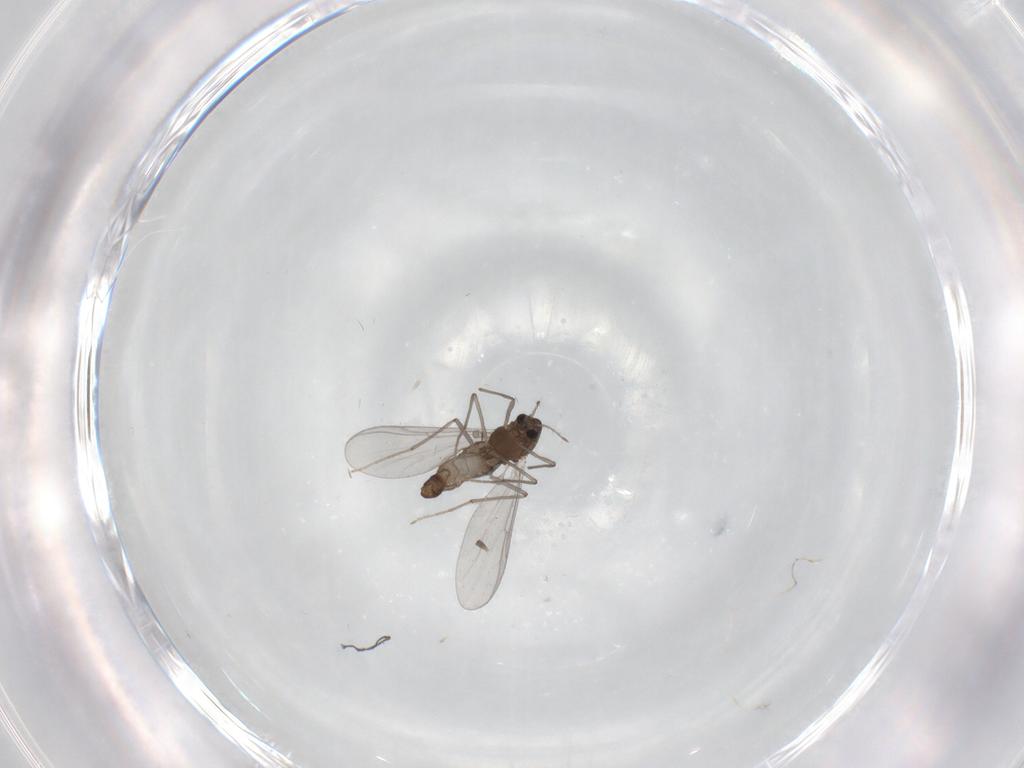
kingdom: Animalia
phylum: Arthropoda
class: Insecta
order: Diptera
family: Chironomidae
